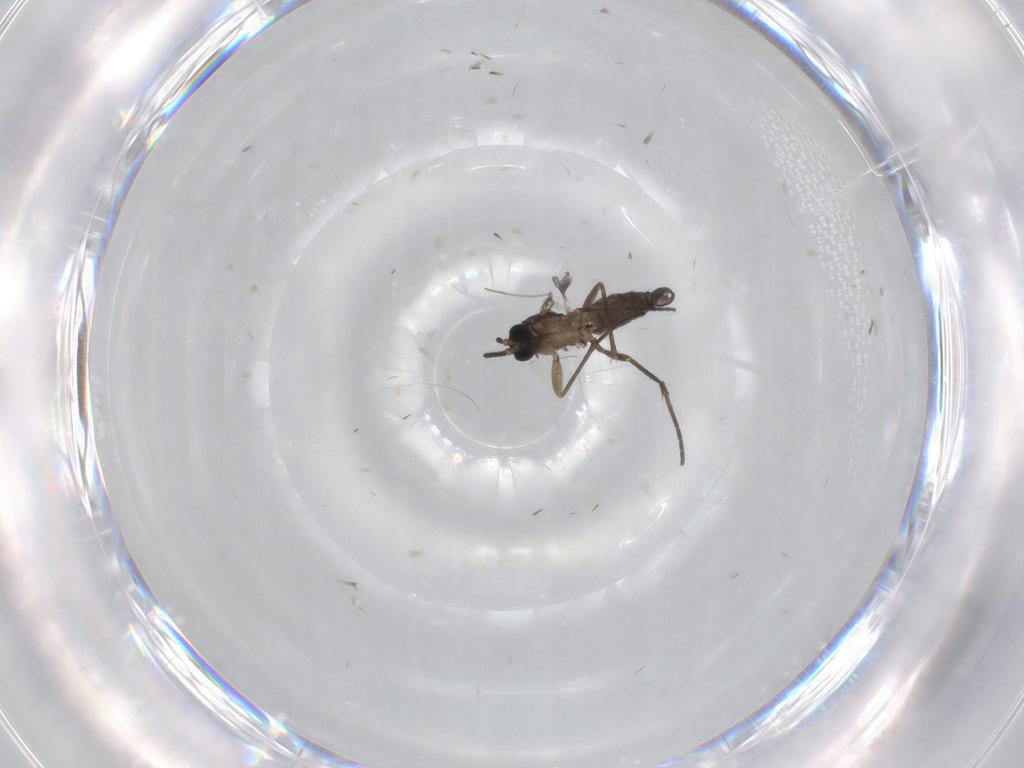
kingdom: Animalia
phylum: Arthropoda
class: Insecta
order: Diptera
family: Sciaridae
